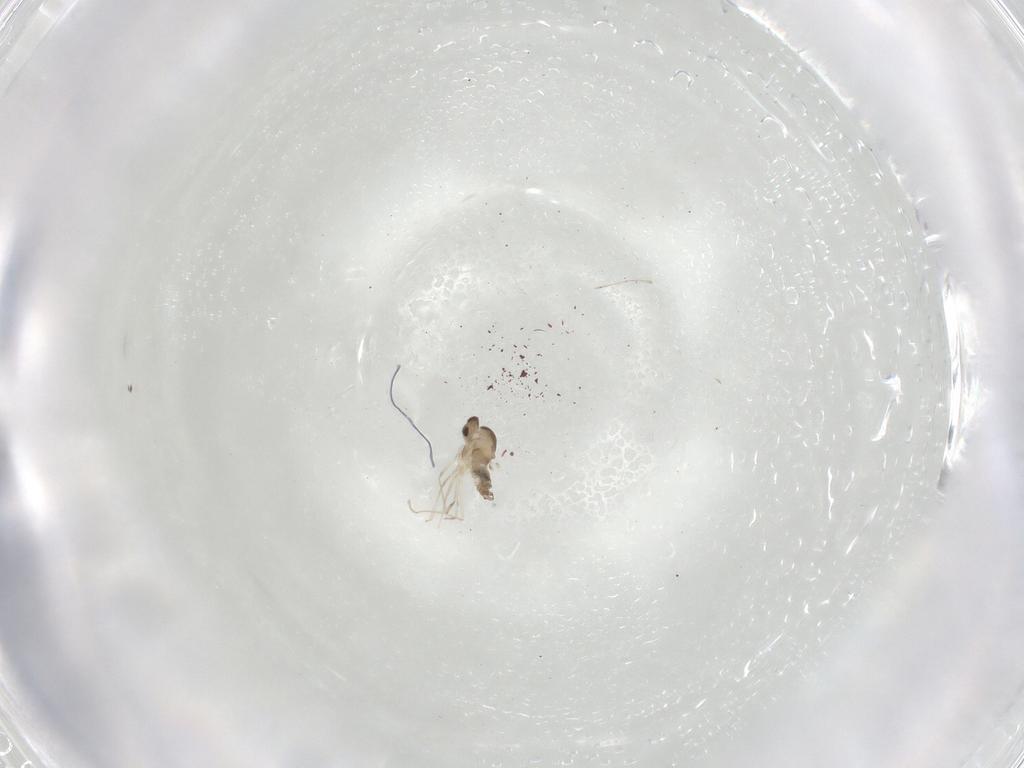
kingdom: Animalia
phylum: Arthropoda
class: Insecta
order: Diptera
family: Cecidomyiidae
